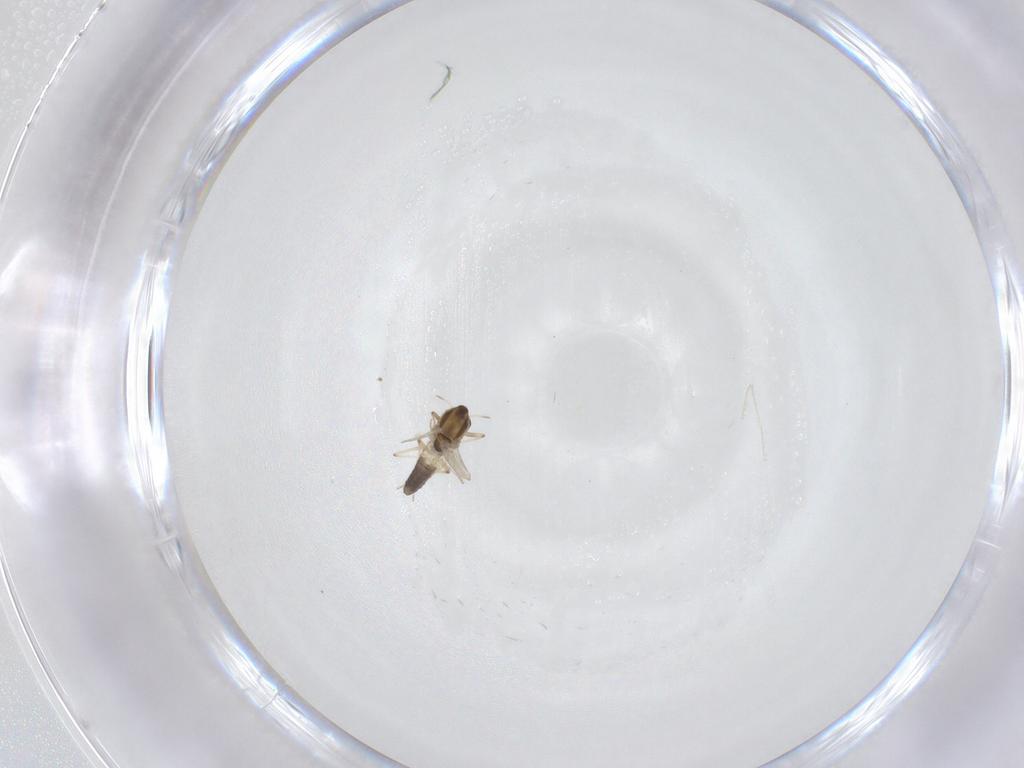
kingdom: Animalia
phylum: Arthropoda
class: Insecta
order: Diptera
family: Chironomidae
